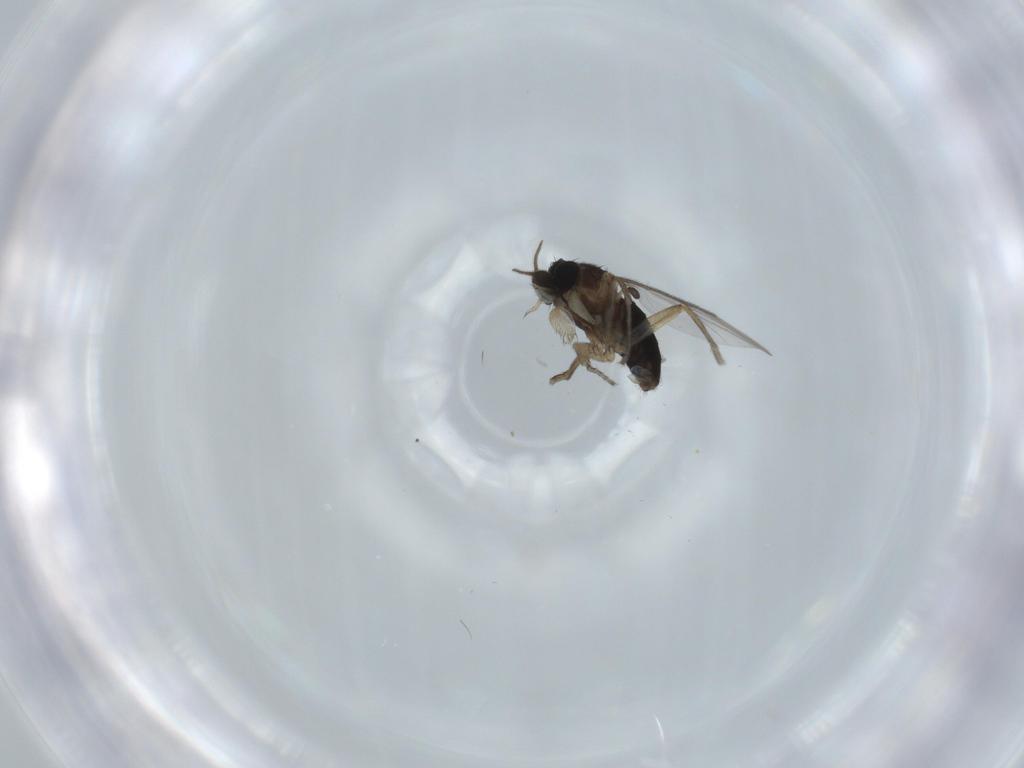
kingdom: Animalia
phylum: Arthropoda
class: Insecta
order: Diptera
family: Phoridae
